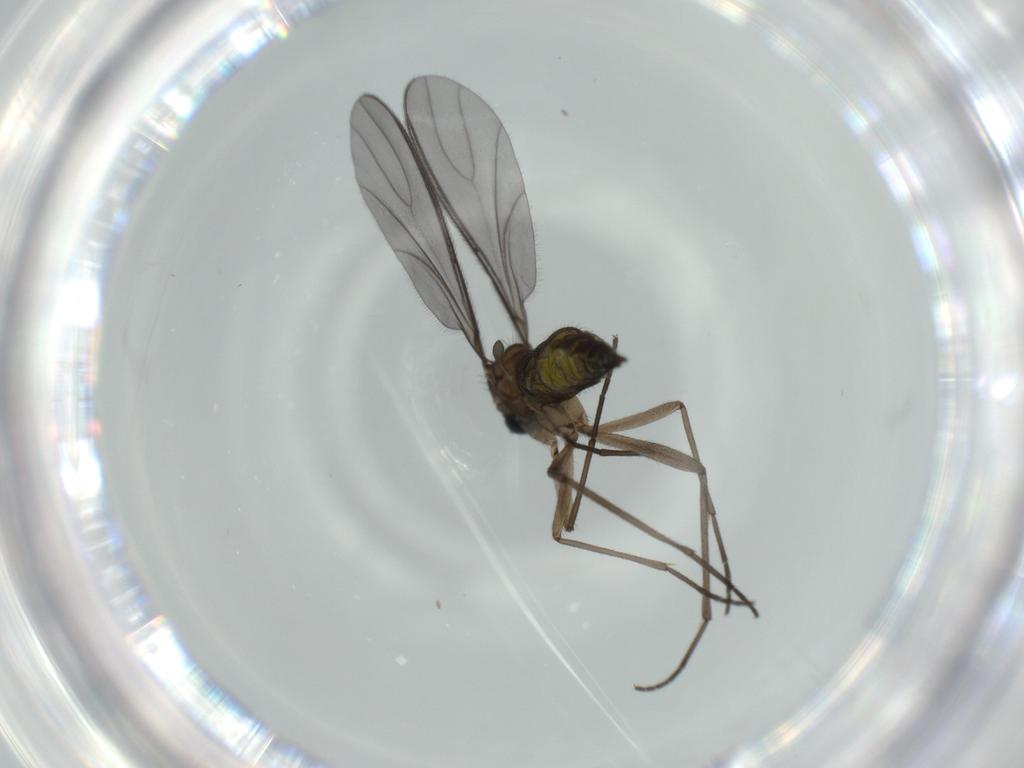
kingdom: Animalia
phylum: Arthropoda
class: Insecta
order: Diptera
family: Sciaridae
